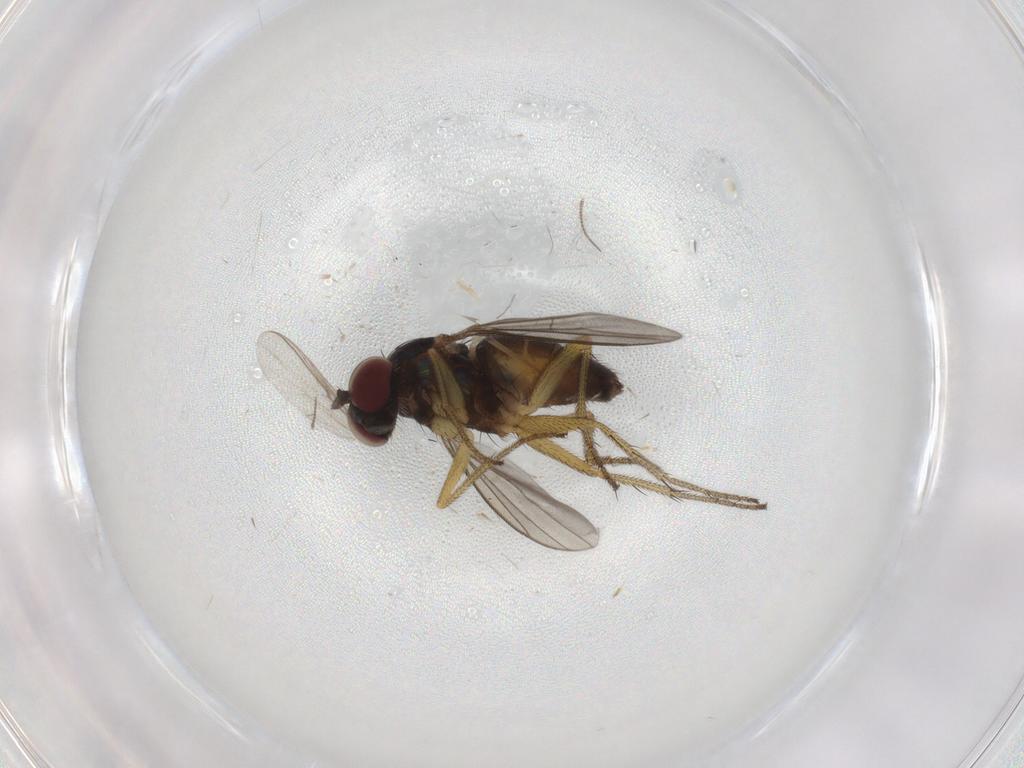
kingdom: Animalia
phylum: Arthropoda
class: Insecta
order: Diptera
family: Dolichopodidae
